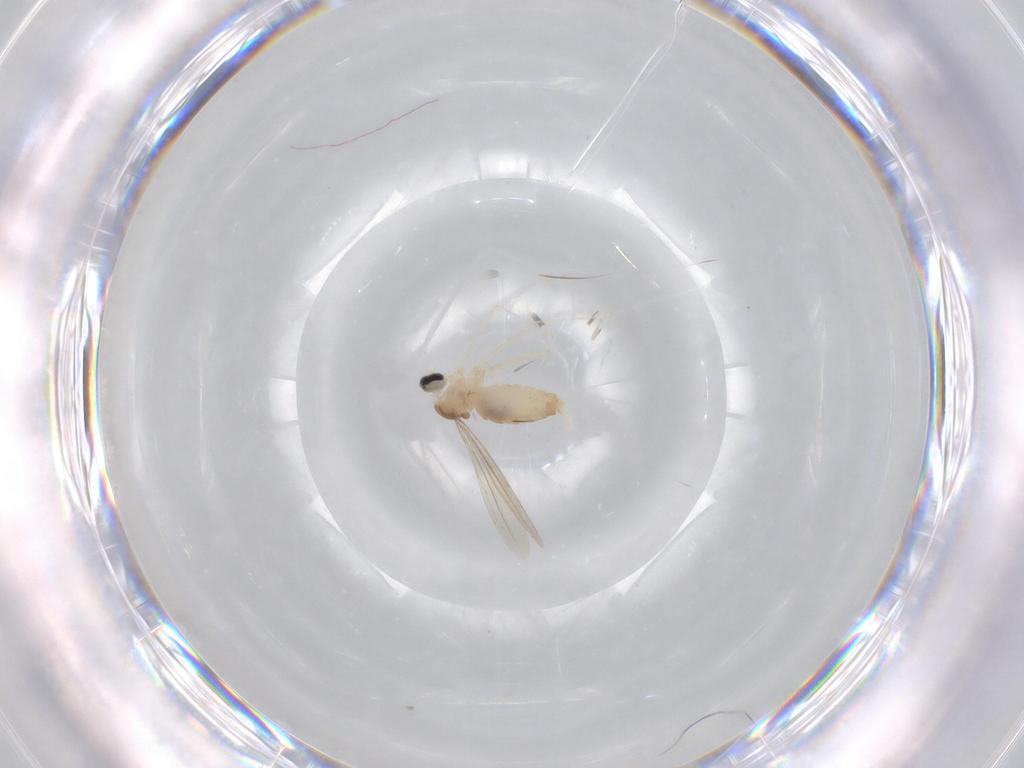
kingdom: Animalia
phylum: Arthropoda
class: Insecta
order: Diptera
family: Cecidomyiidae
